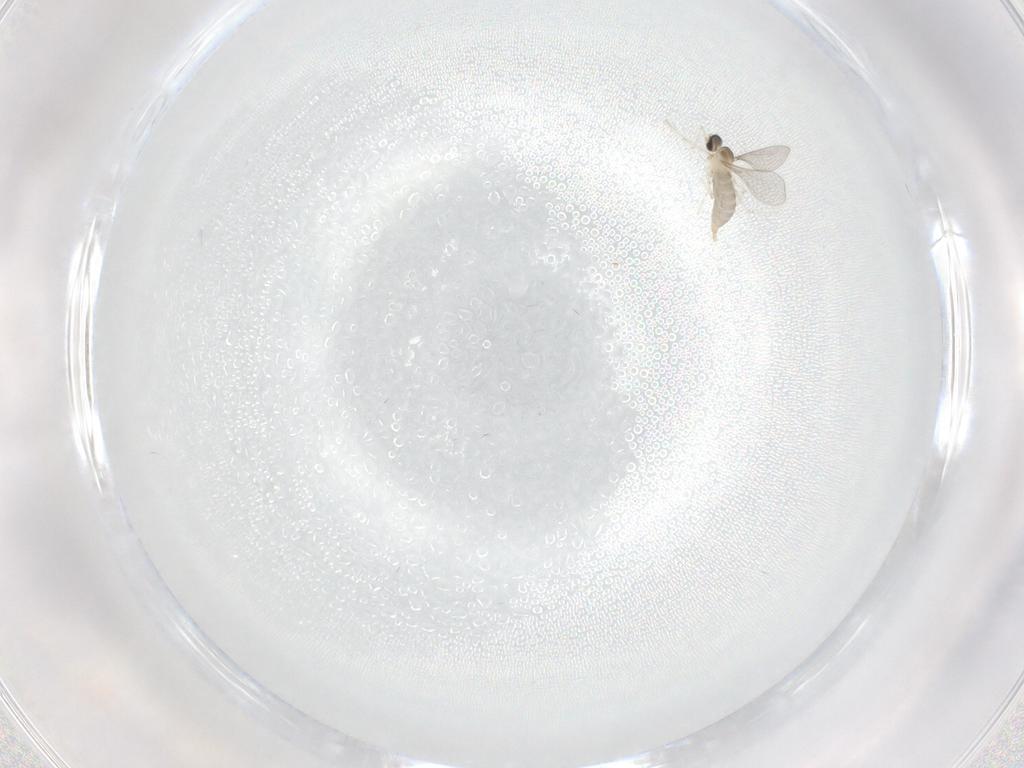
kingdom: Animalia
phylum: Arthropoda
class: Insecta
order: Diptera
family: Cecidomyiidae
